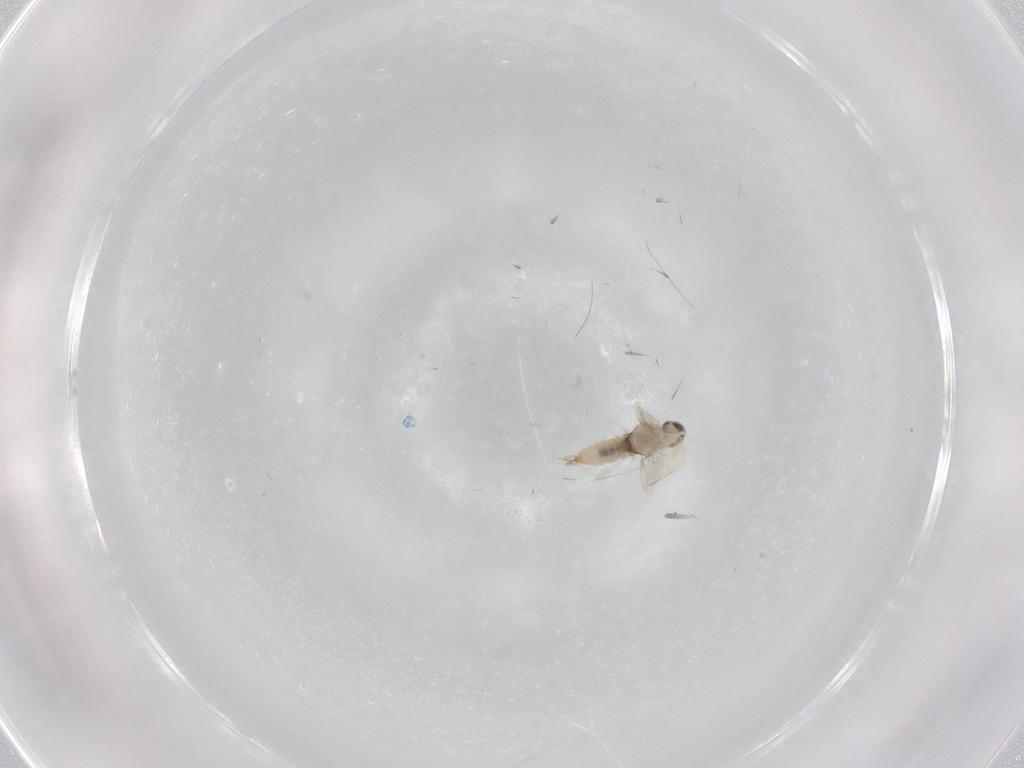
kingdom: Animalia
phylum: Arthropoda
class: Insecta
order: Diptera
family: Cecidomyiidae
